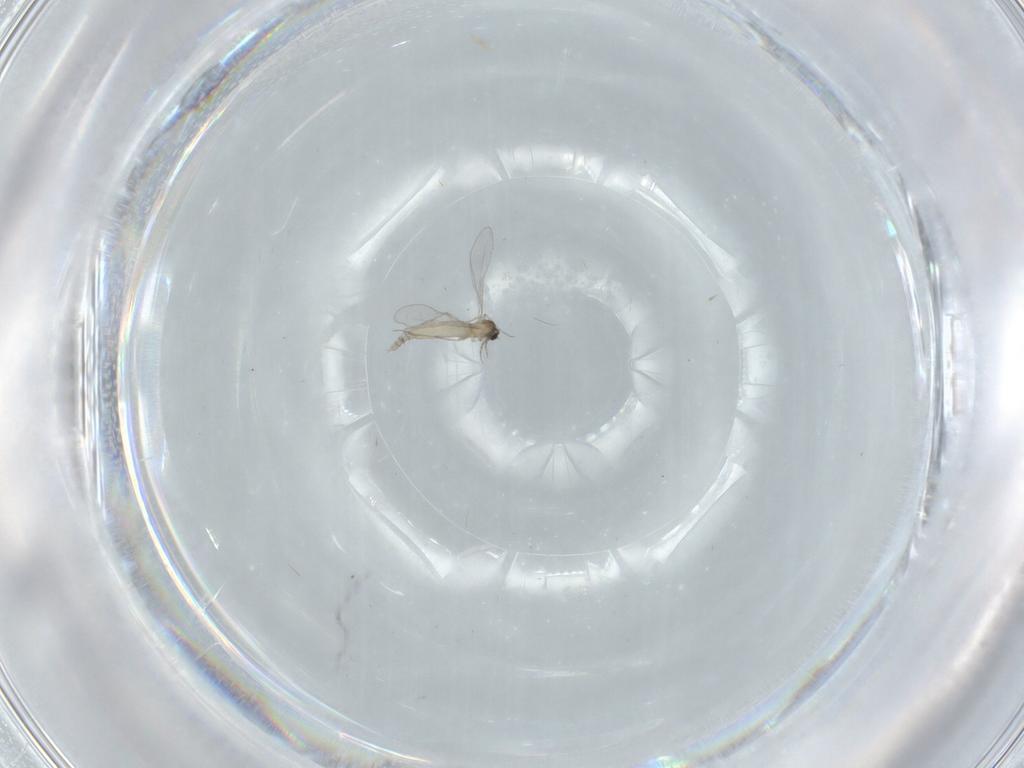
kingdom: Animalia
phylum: Arthropoda
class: Insecta
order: Diptera
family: Cecidomyiidae
